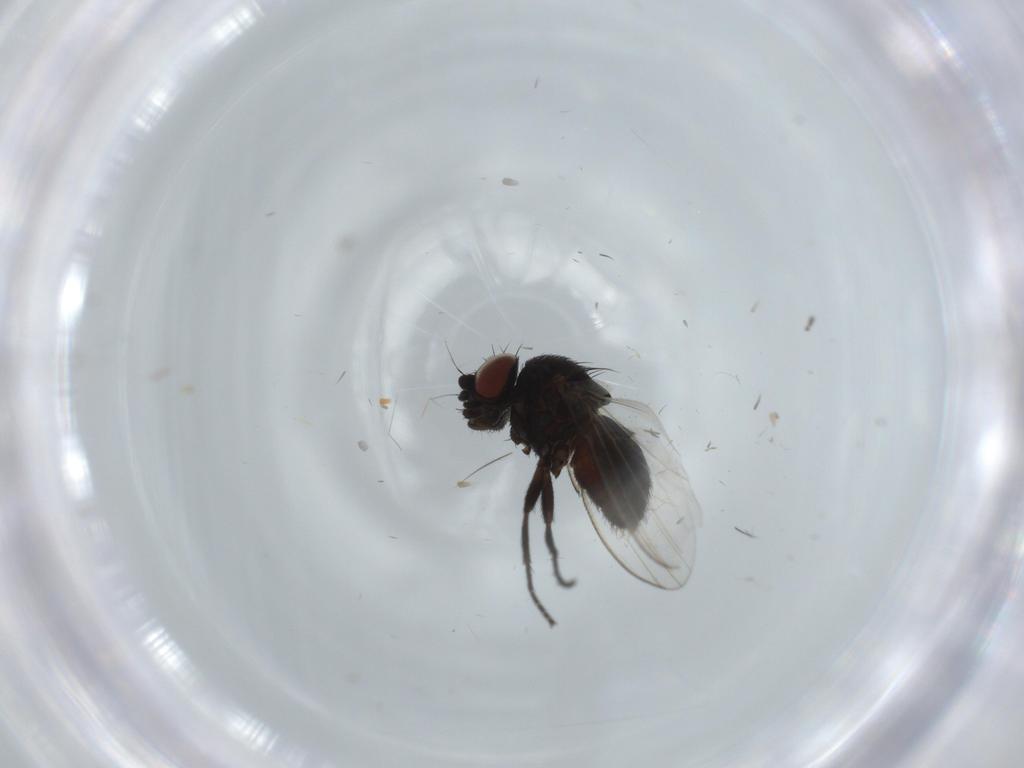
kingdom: Animalia
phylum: Arthropoda
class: Insecta
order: Diptera
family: Milichiidae
